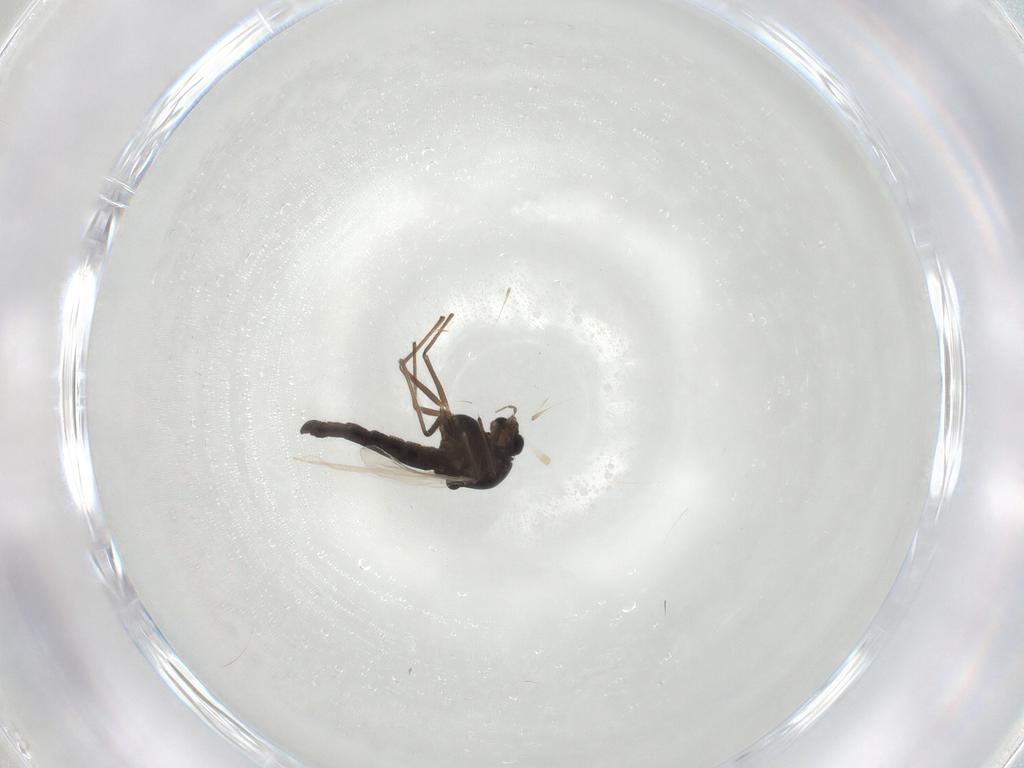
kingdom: Animalia
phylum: Arthropoda
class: Insecta
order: Diptera
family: Chironomidae
